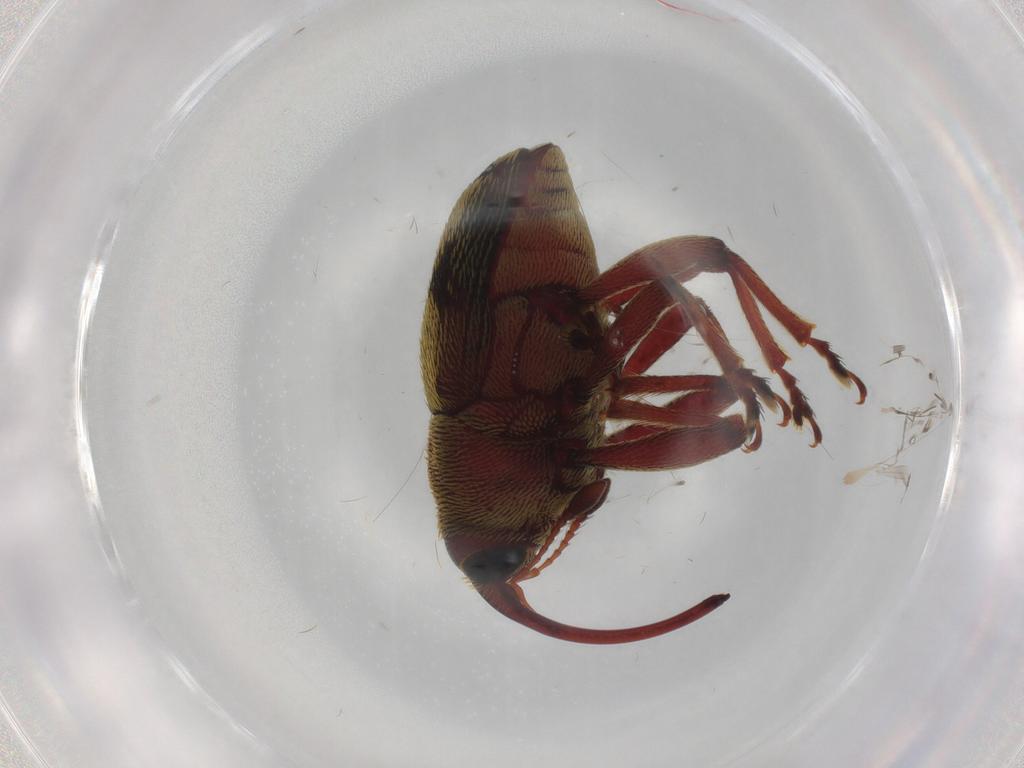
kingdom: Animalia
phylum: Arthropoda
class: Insecta
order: Coleoptera
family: Curculionidae
